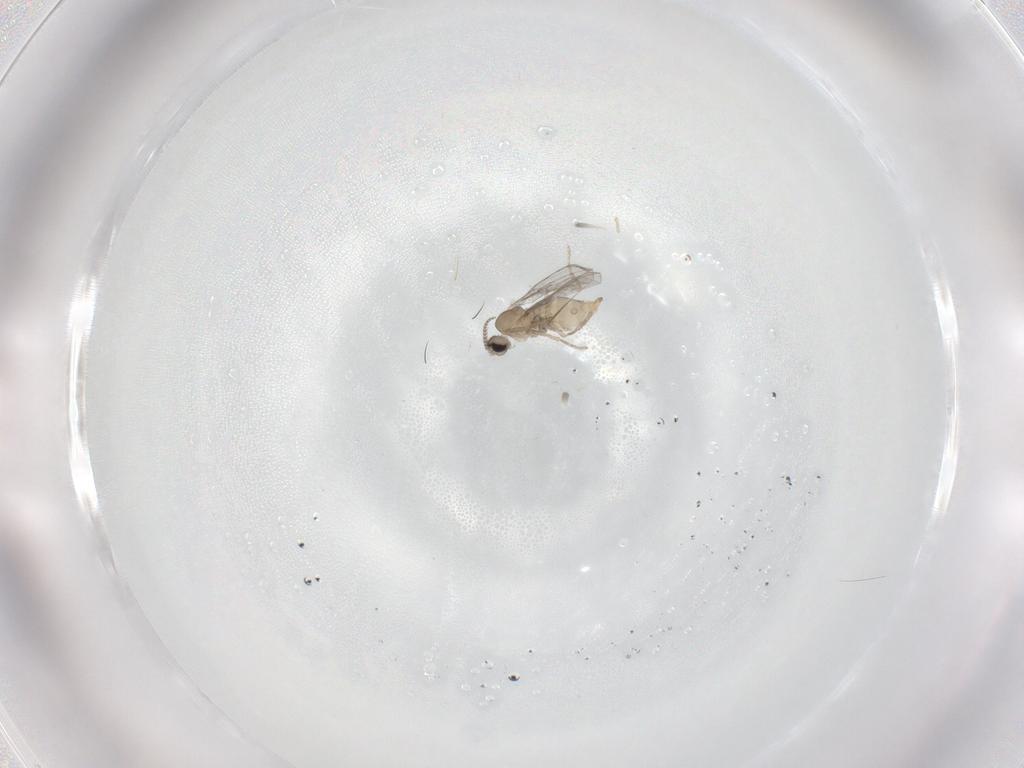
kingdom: Animalia
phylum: Arthropoda
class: Insecta
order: Diptera
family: Cecidomyiidae
